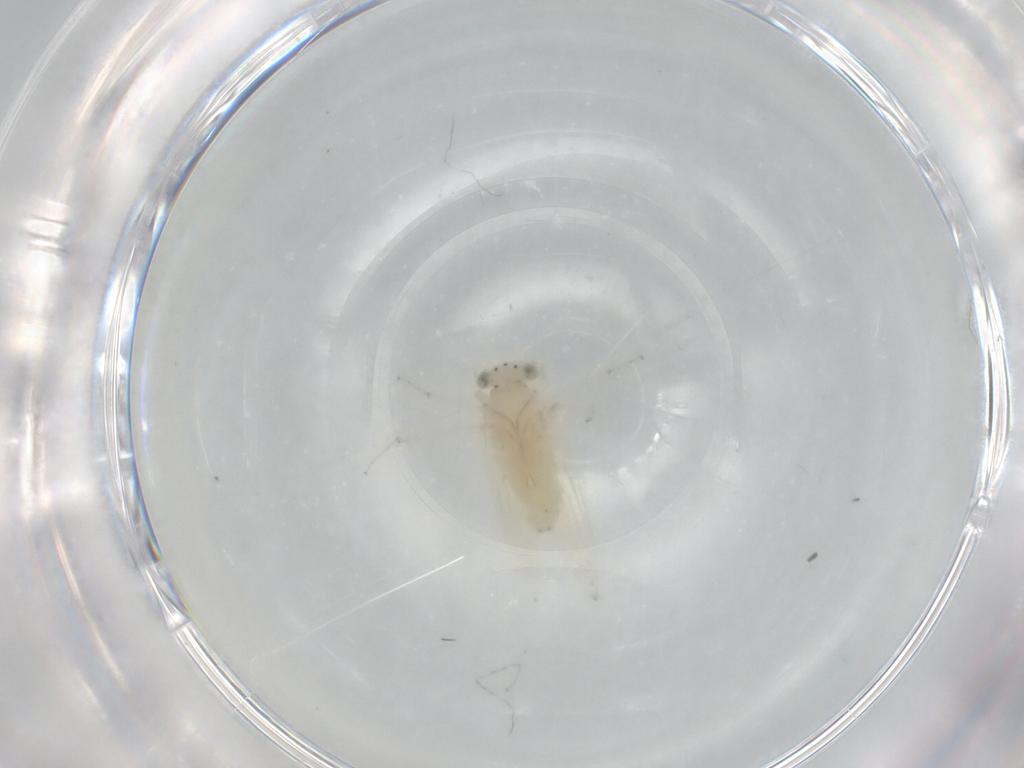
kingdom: Animalia
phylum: Arthropoda
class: Insecta
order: Psocodea
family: Lepidopsocidae
